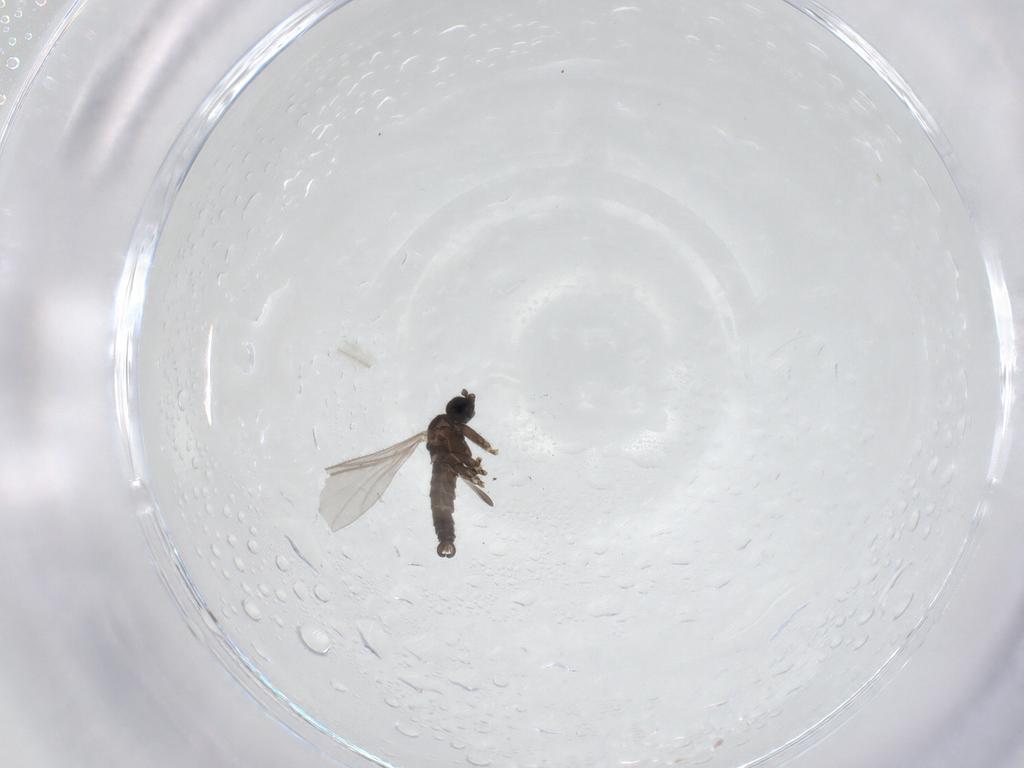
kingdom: Animalia
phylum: Arthropoda
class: Insecta
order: Diptera
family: Sciaridae
